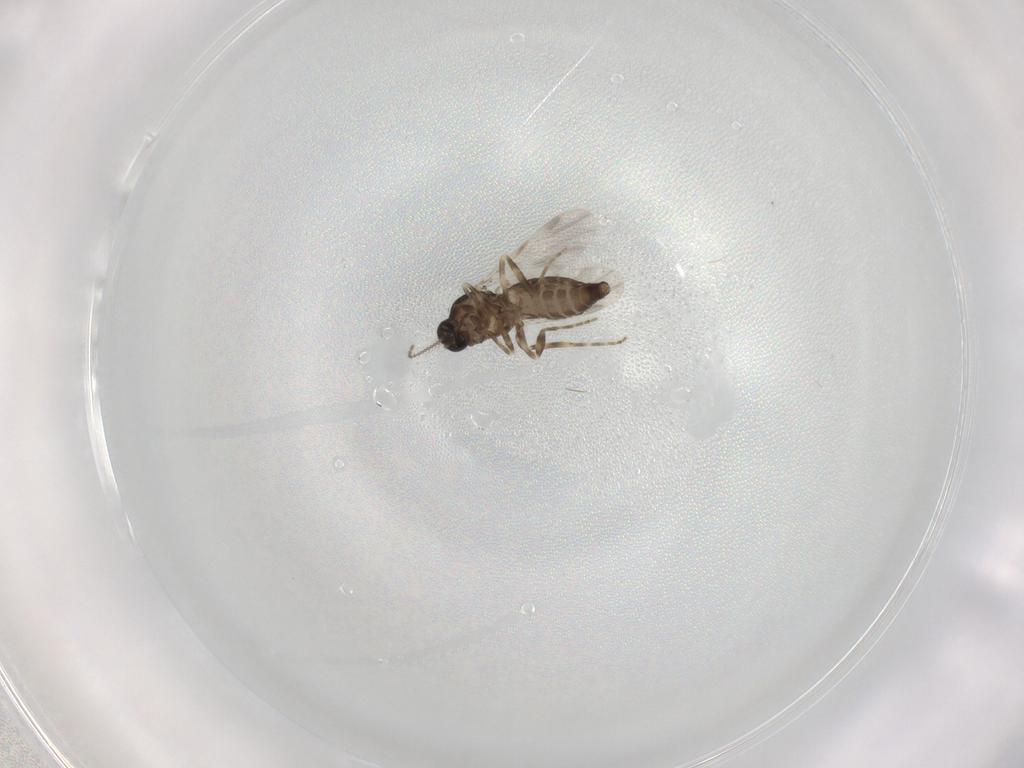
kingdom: Animalia
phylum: Arthropoda
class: Insecta
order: Diptera
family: Ceratopogonidae
